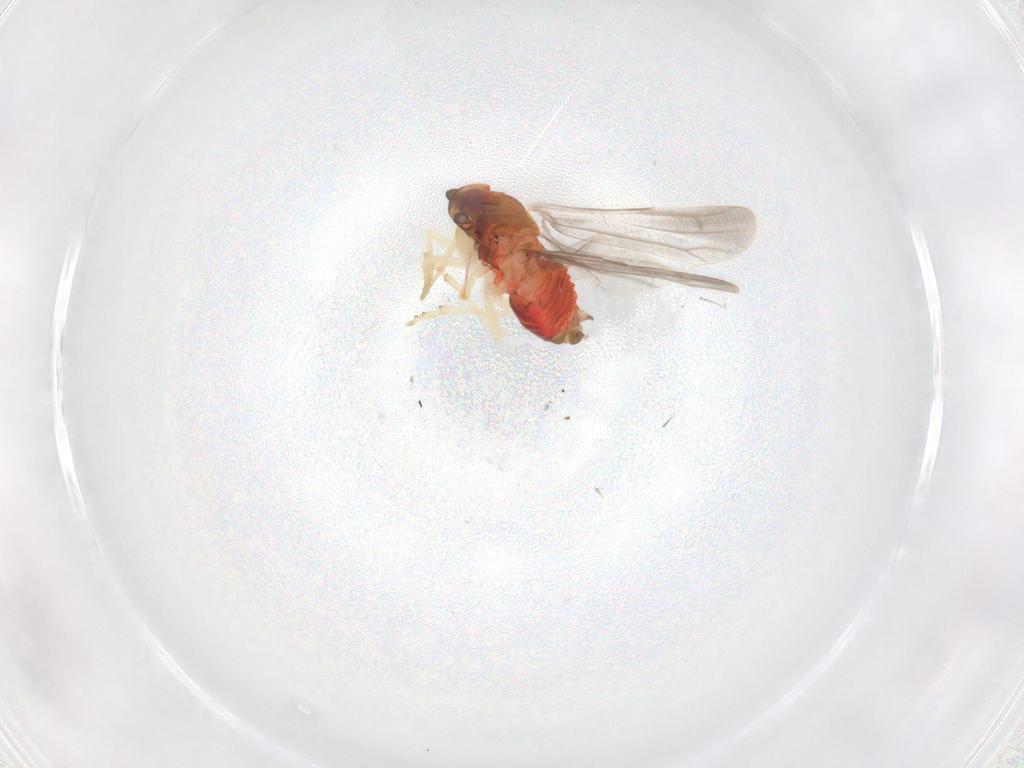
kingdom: Animalia
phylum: Arthropoda
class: Insecta
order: Hemiptera
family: Derbidae
